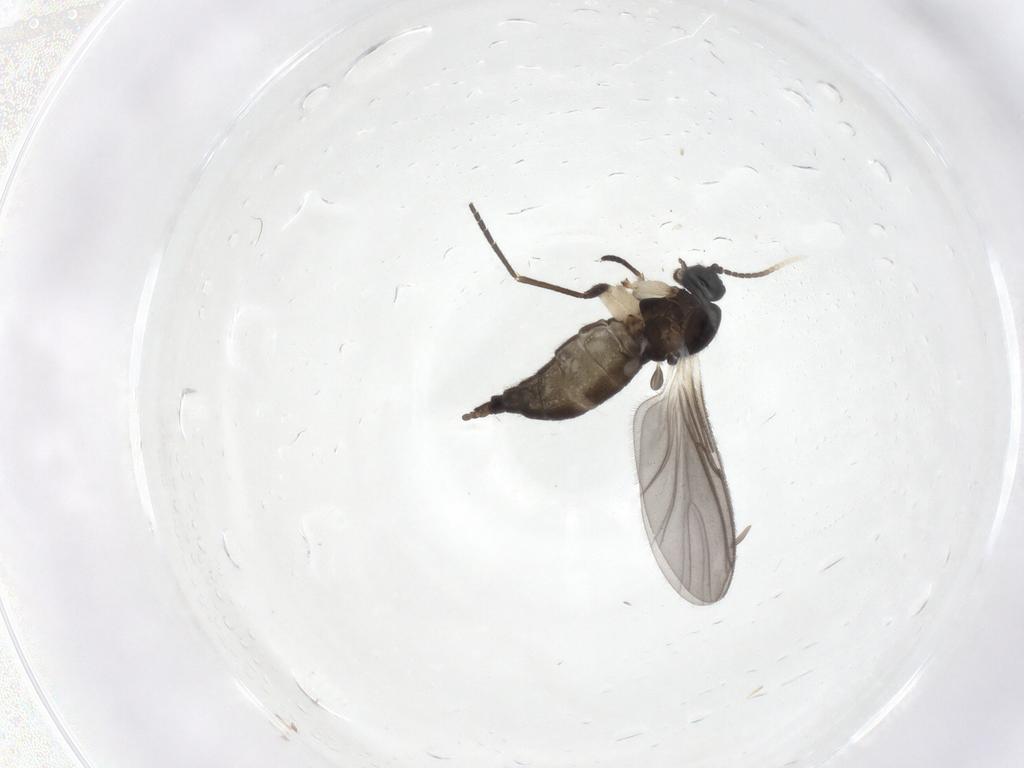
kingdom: Animalia
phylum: Arthropoda
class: Insecta
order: Diptera
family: Sciaridae
